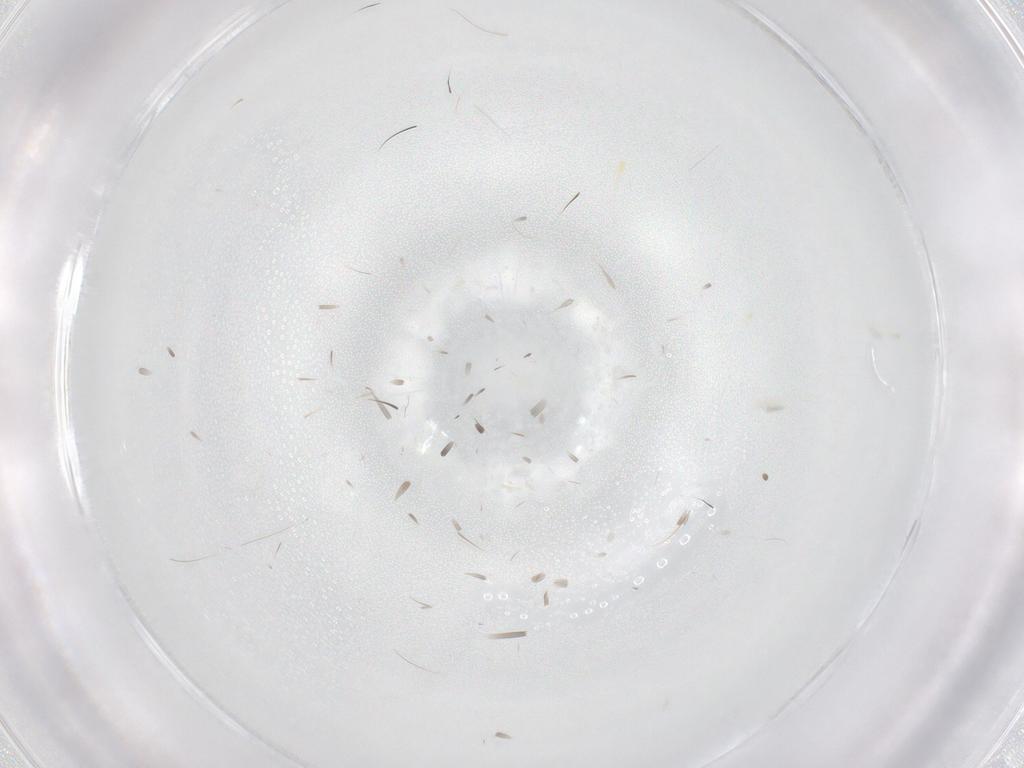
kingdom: Animalia
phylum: Arthropoda
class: Arachnida
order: Mesostigmata
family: Phytoseiidae
